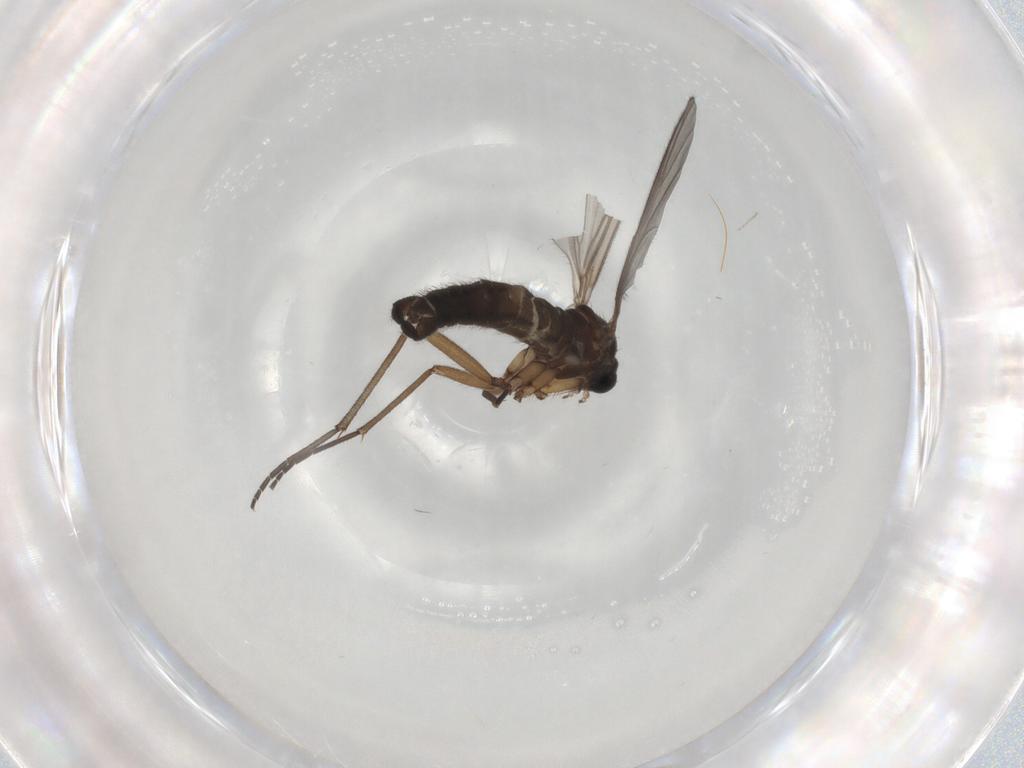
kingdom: Animalia
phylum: Arthropoda
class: Insecta
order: Diptera
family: Sciaridae
